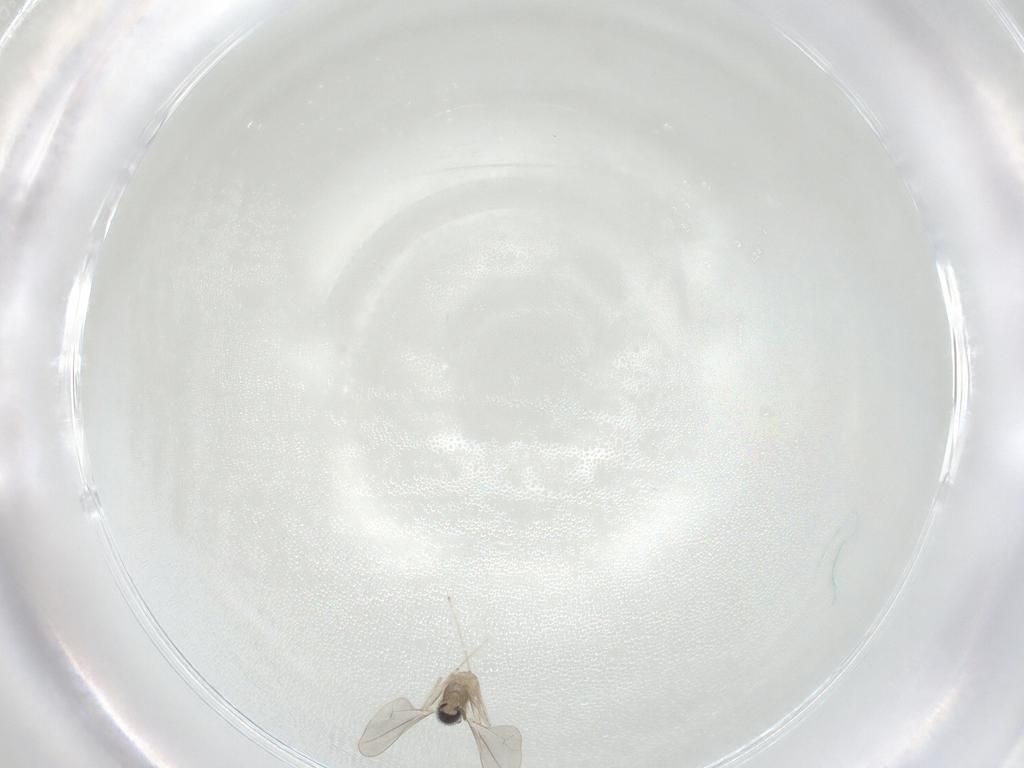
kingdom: Animalia
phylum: Arthropoda
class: Insecta
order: Diptera
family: Cecidomyiidae
